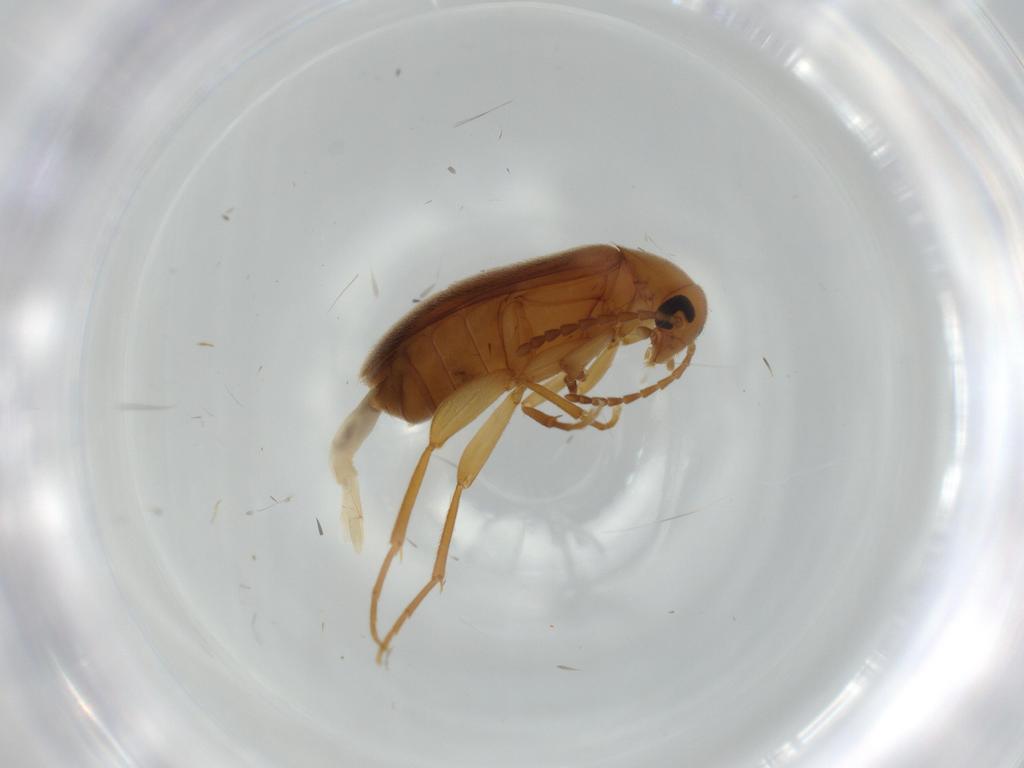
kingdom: Animalia
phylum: Arthropoda
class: Insecta
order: Coleoptera
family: Scraptiidae
